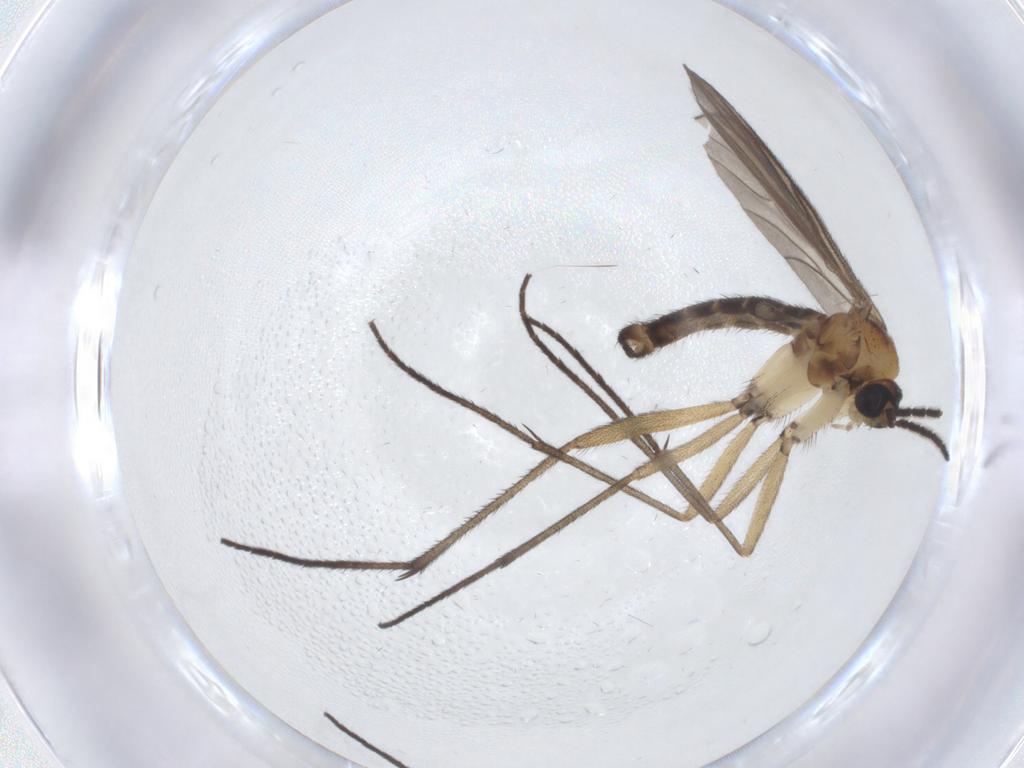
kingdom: Animalia
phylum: Arthropoda
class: Insecta
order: Diptera
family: Sciaridae
